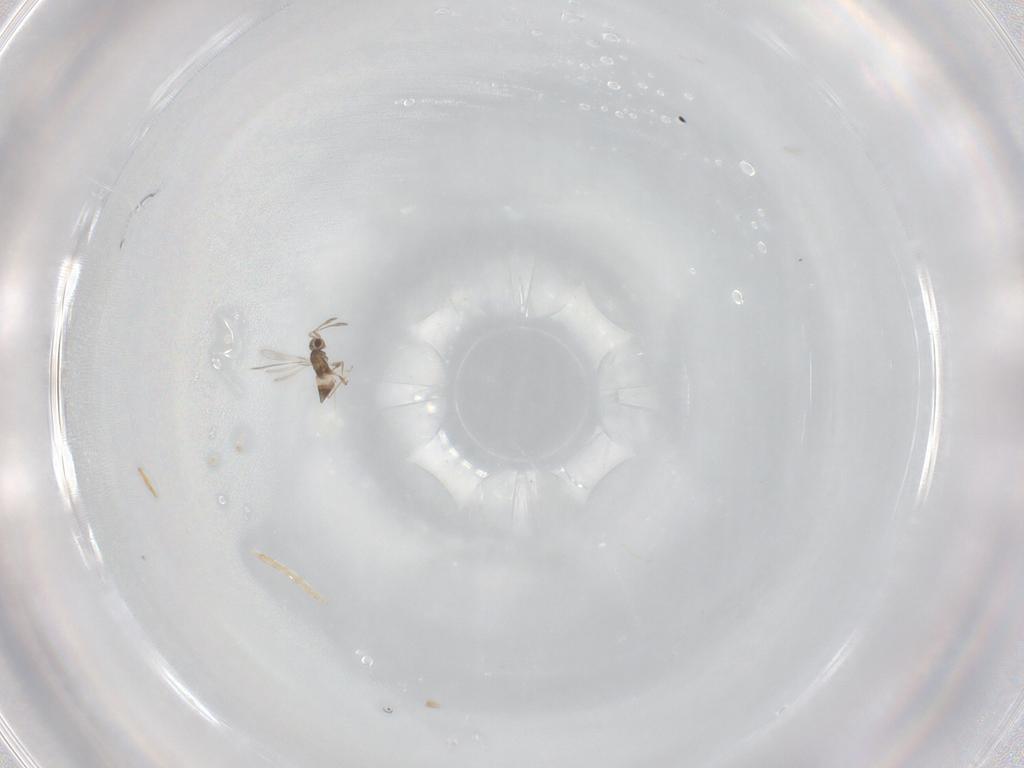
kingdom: Animalia
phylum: Arthropoda
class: Insecta
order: Hymenoptera
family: Mymaridae
